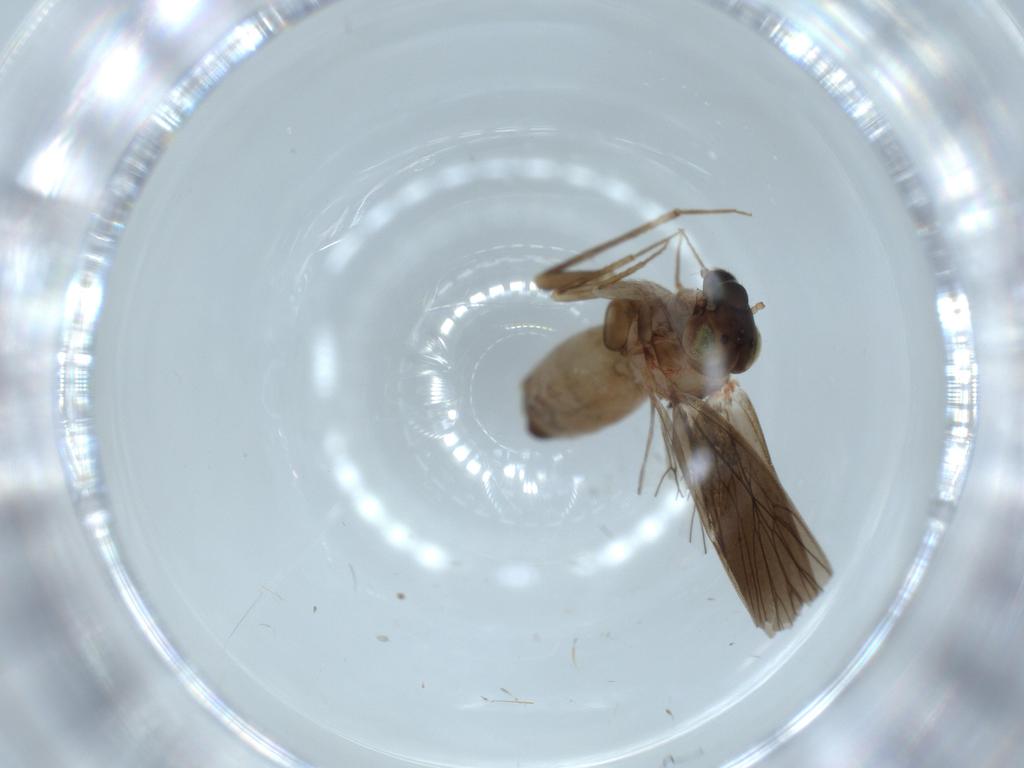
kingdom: Animalia
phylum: Arthropoda
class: Insecta
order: Psocodea
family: Lepidopsocidae
